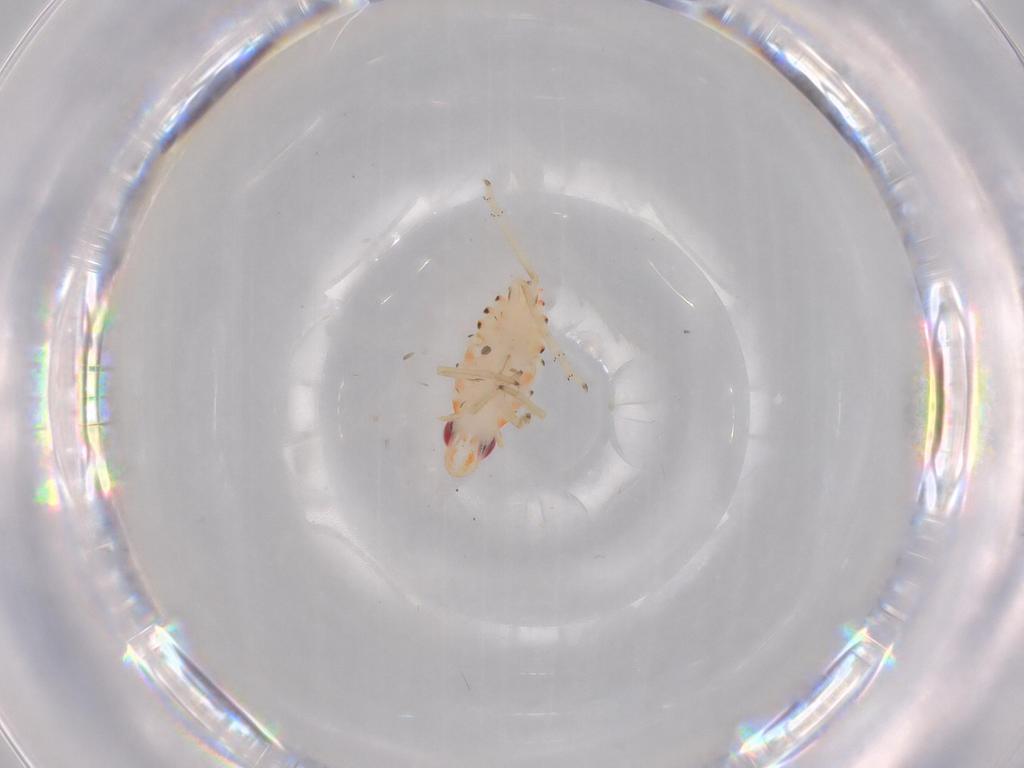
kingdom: Animalia
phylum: Arthropoda
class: Insecta
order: Hemiptera
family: Tropiduchidae
